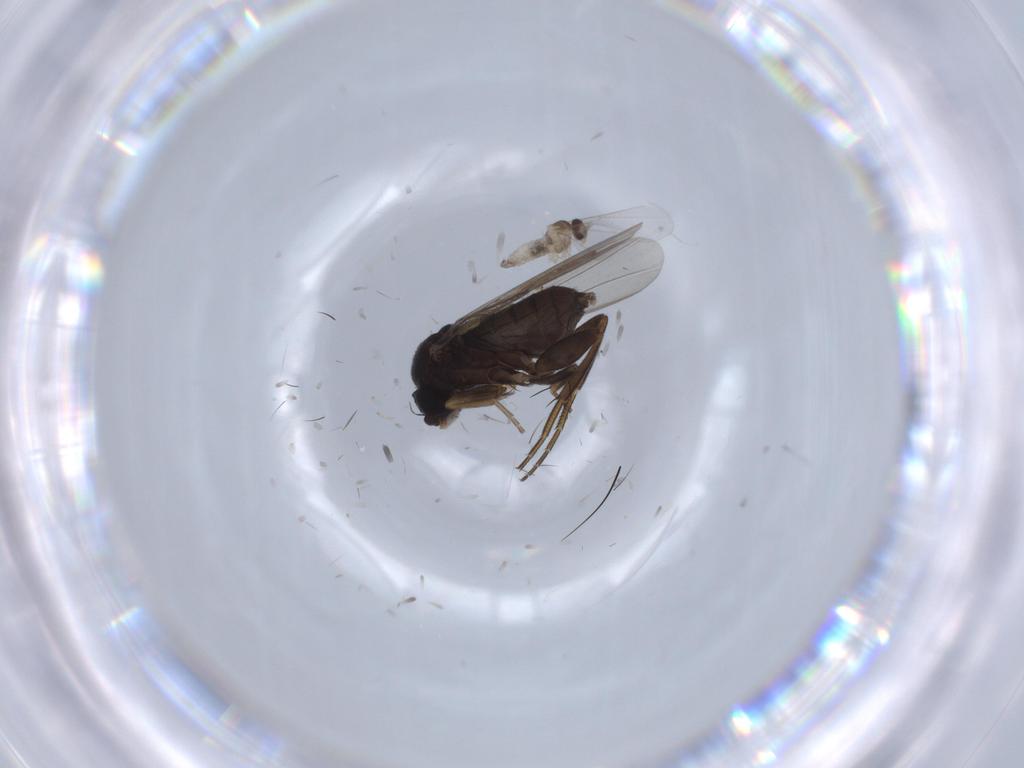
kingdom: Animalia
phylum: Arthropoda
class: Insecta
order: Diptera
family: Phoridae
